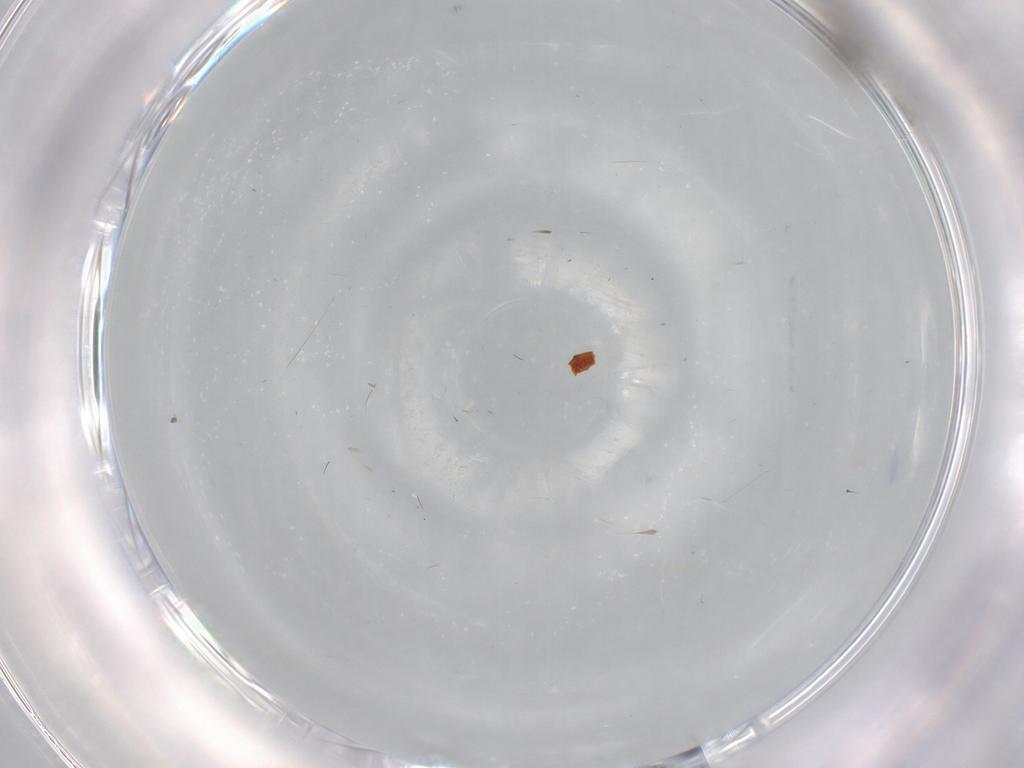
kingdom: Animalia
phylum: Arthropoda
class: Insecta
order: Diptera
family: Cecidomyiidae
